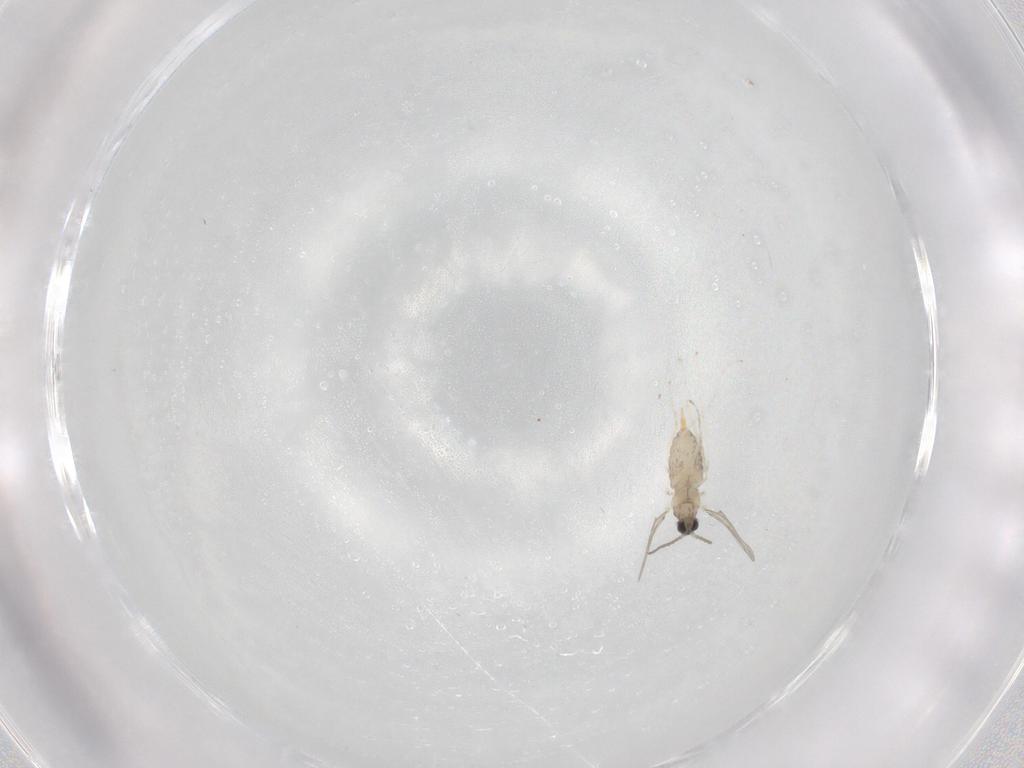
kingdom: Animalia
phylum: Arthropoda
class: Insecta
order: Diptera
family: Cecidomyiidae
